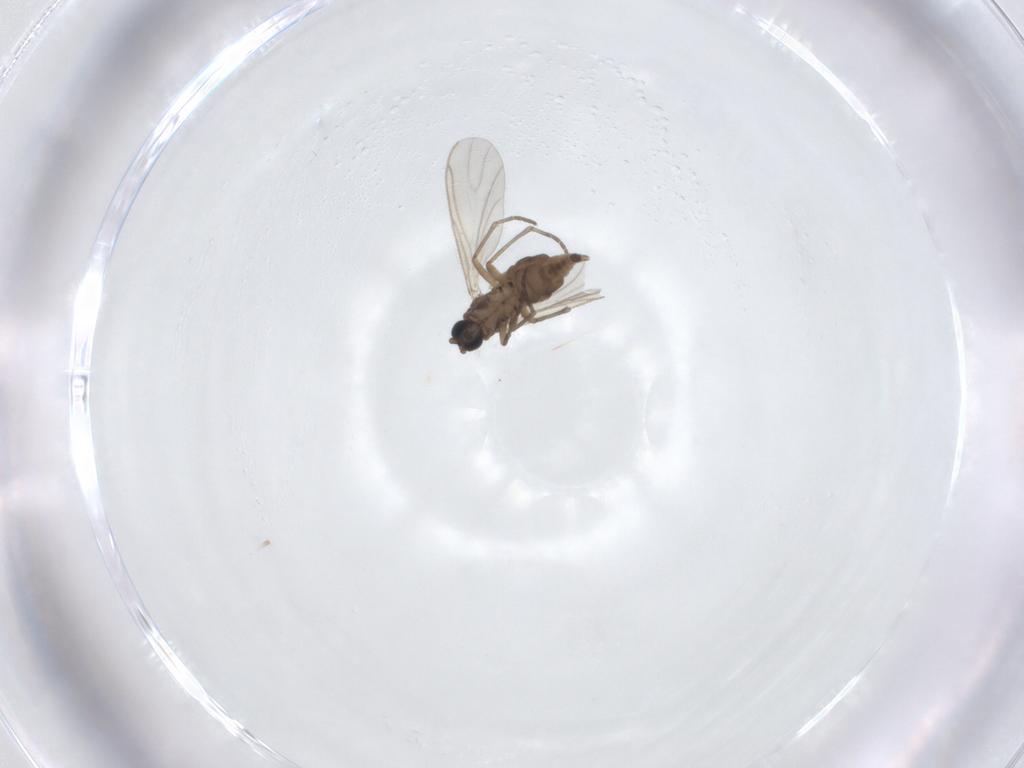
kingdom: Animalia
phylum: Arthropoda
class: Insecta
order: Diptera
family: Sciaridae
